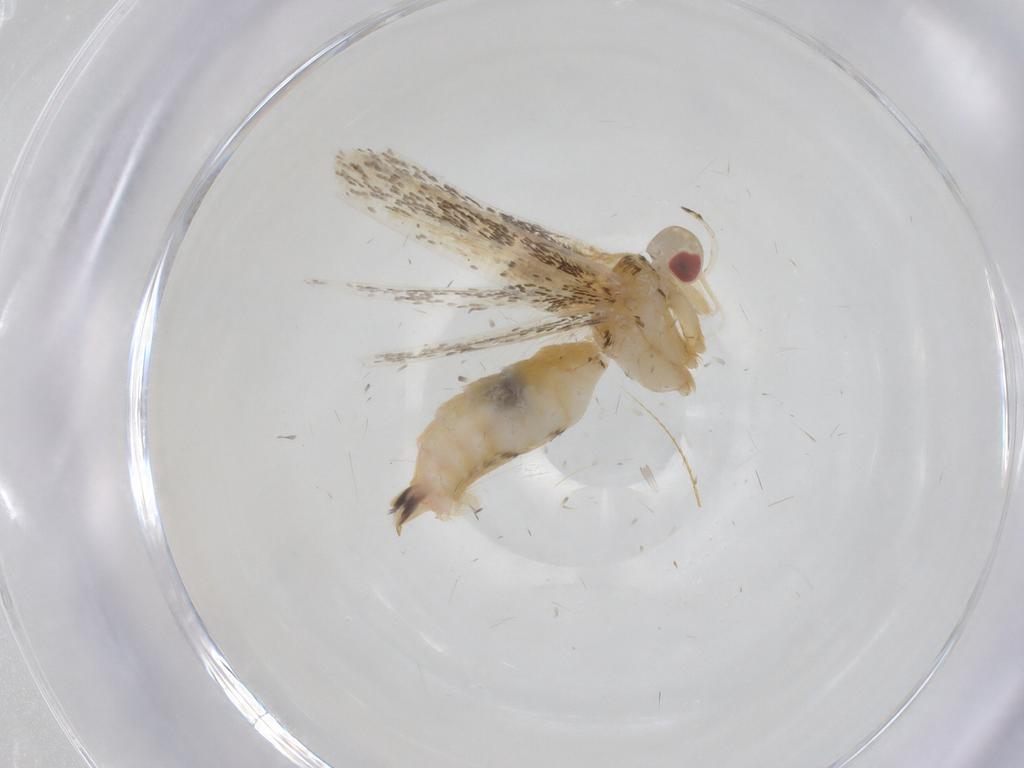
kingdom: Animalia
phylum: Arthropoda
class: Insecta
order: Lepidoptera
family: Cosmopterigidae
